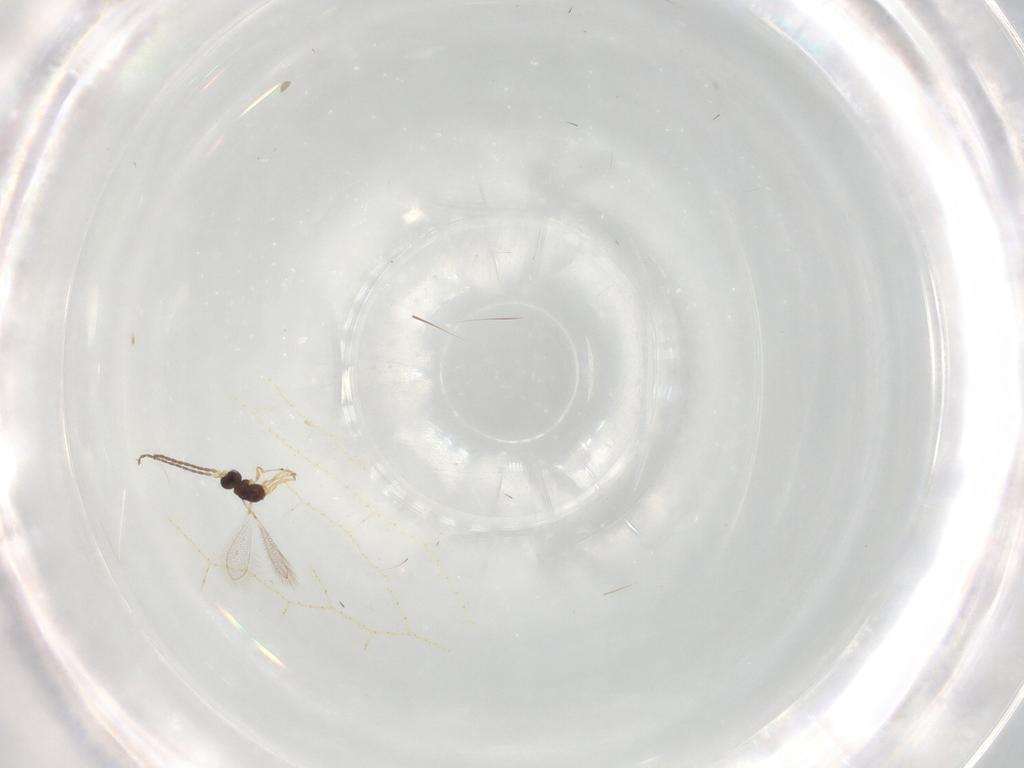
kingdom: Animalia
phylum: Arthropoda
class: Insecta
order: Hymenoptera
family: Mymaridae
